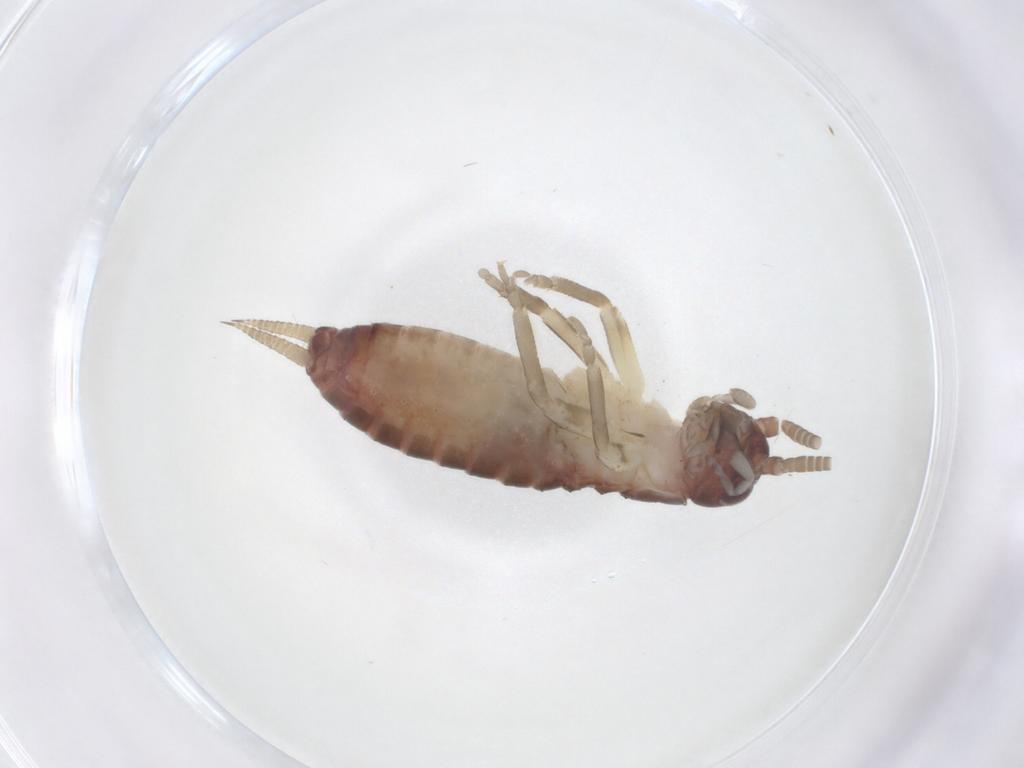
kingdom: Animalia
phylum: Arthropoda
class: Insecta
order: Orthoptera
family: Gryllidae
